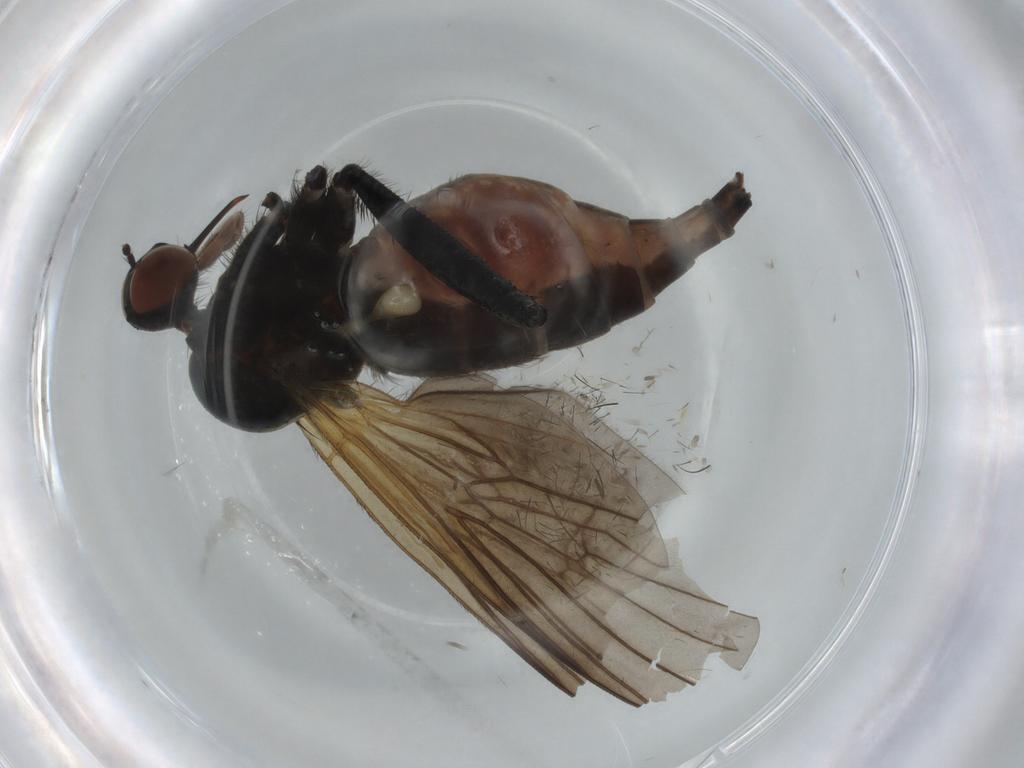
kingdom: Animalia
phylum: Arthropoda
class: Insecta
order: Diptera
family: Empididae
